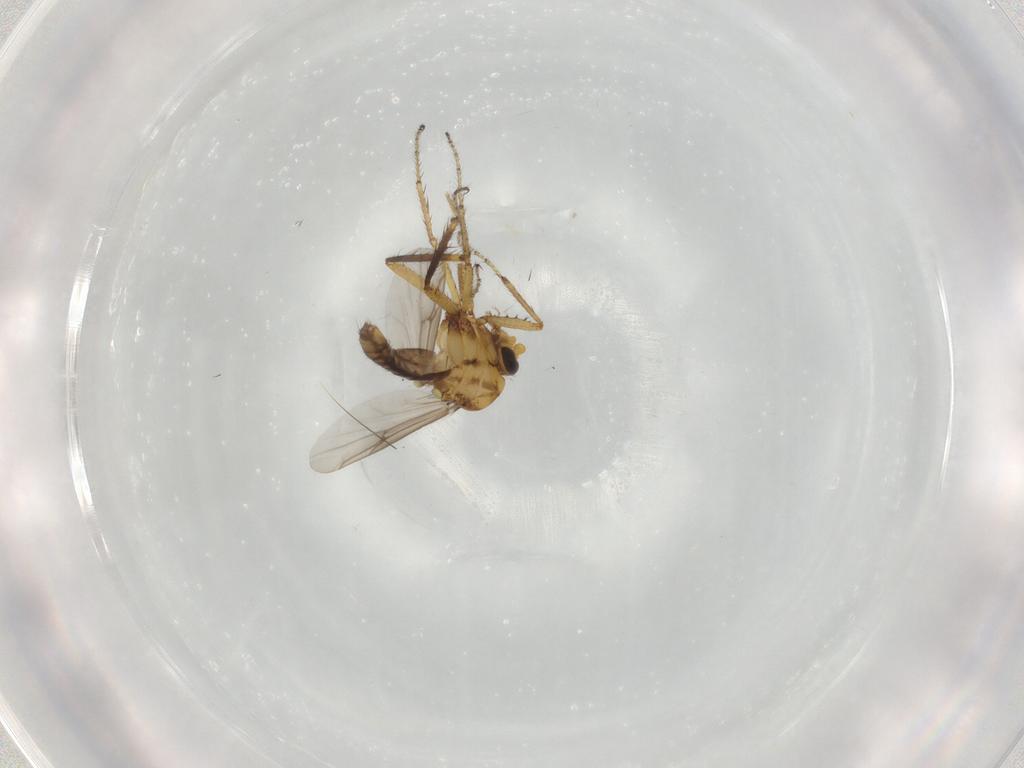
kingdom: Animalia
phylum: Arthropoda
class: Insecta
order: Diptera
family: Ceratopogonidae
